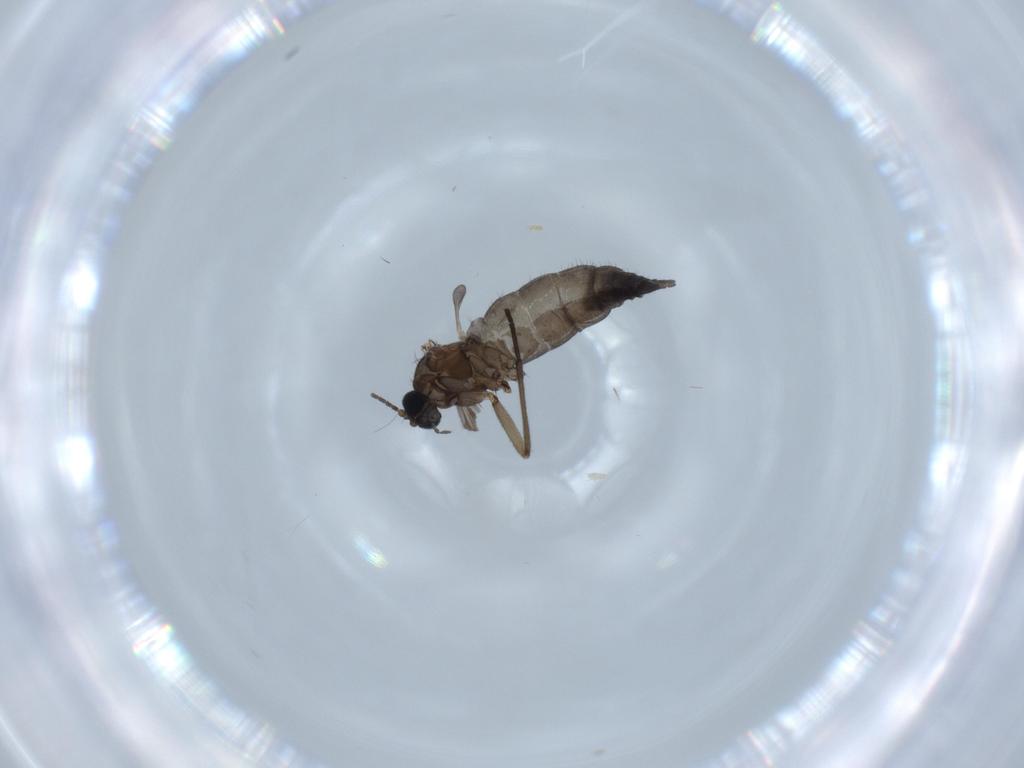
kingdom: Animalia
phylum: Arthropoda
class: Insecta
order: Diptera
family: Sciaridae
